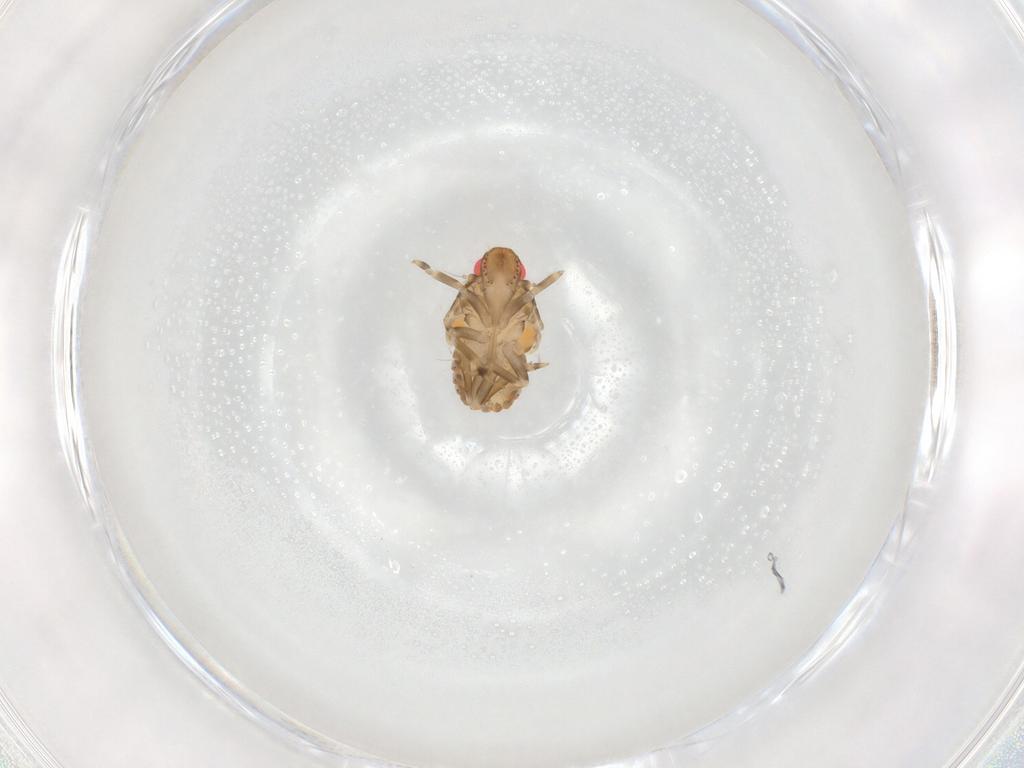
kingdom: Animalia
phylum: Arthropoda
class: Insecta
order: Hemiptera
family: Flatidae
